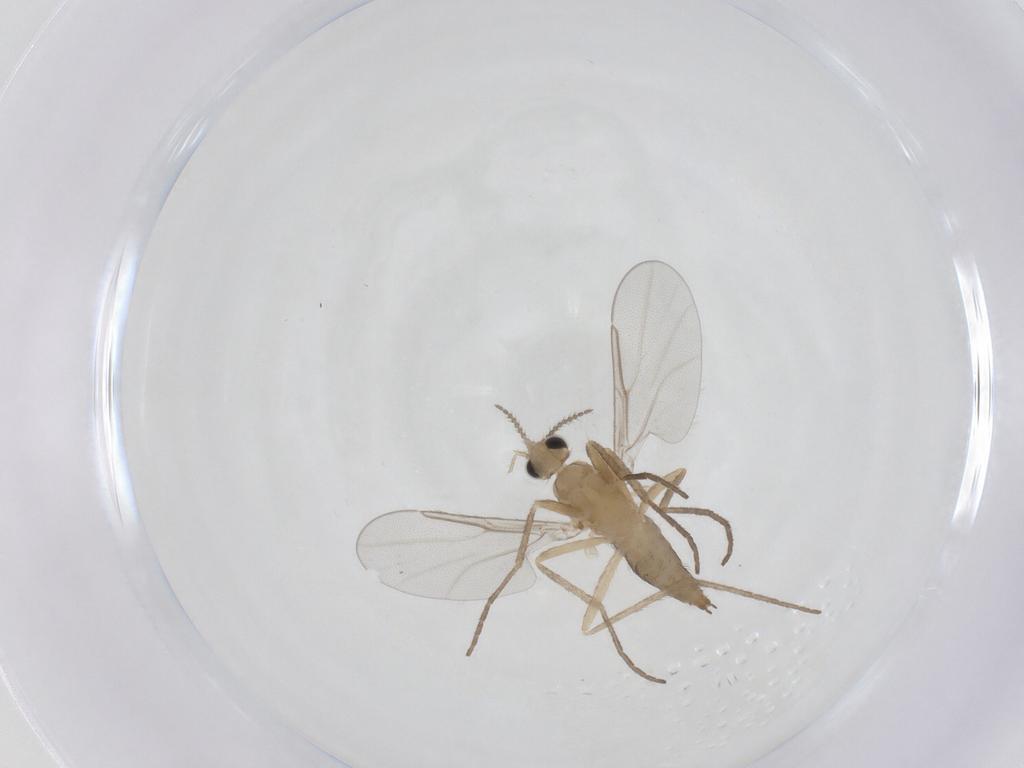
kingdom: Animalia
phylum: Arthropoda
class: Insecta
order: Diptera
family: Cecidomyiidae
